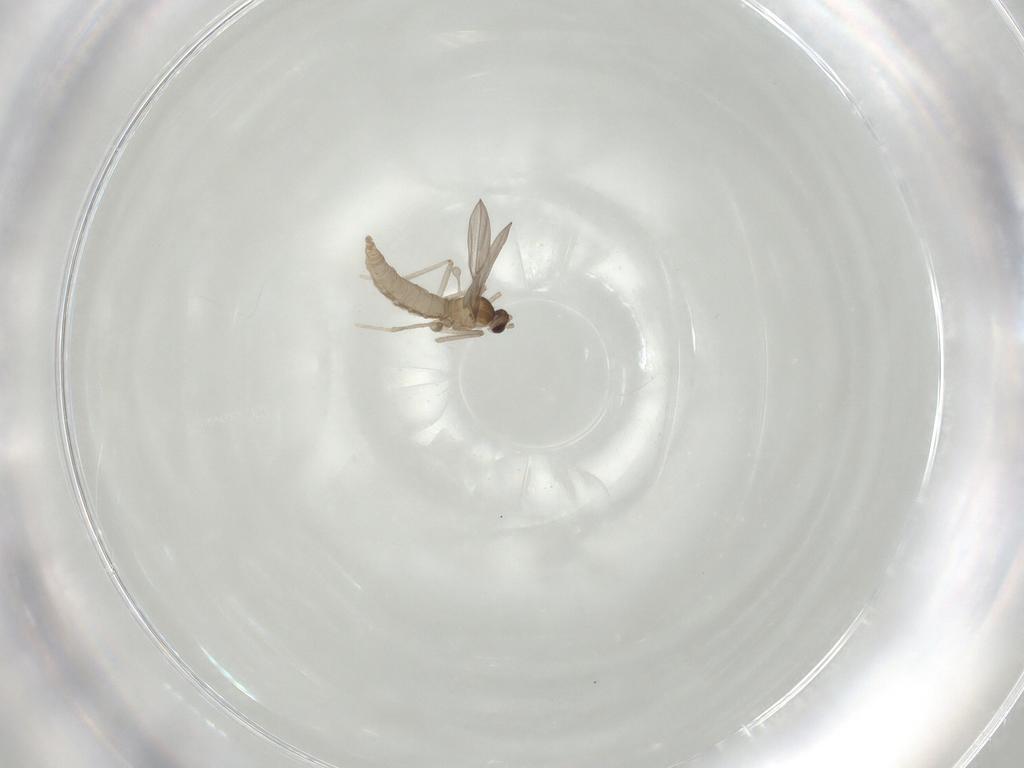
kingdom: Animalia
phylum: Arthropoda
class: Insecta
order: Diptera
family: Cecidomyiidae
